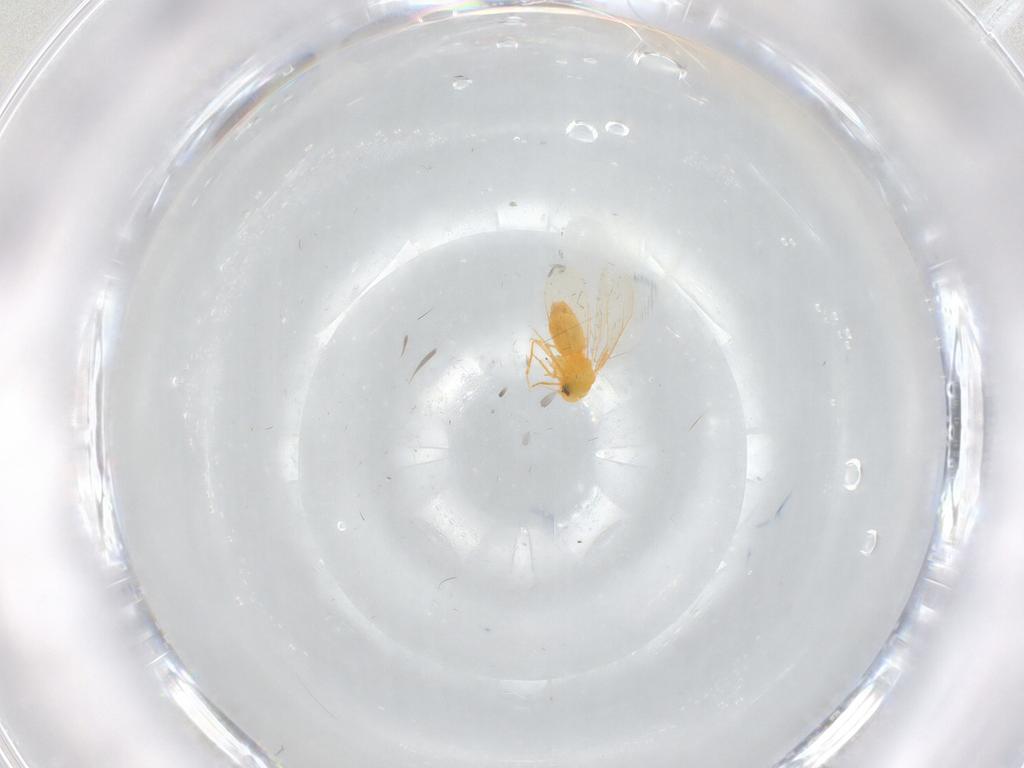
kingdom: Animalia
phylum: Arthropoda
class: Insecta
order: Hemiptera
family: Aleyrodidae
